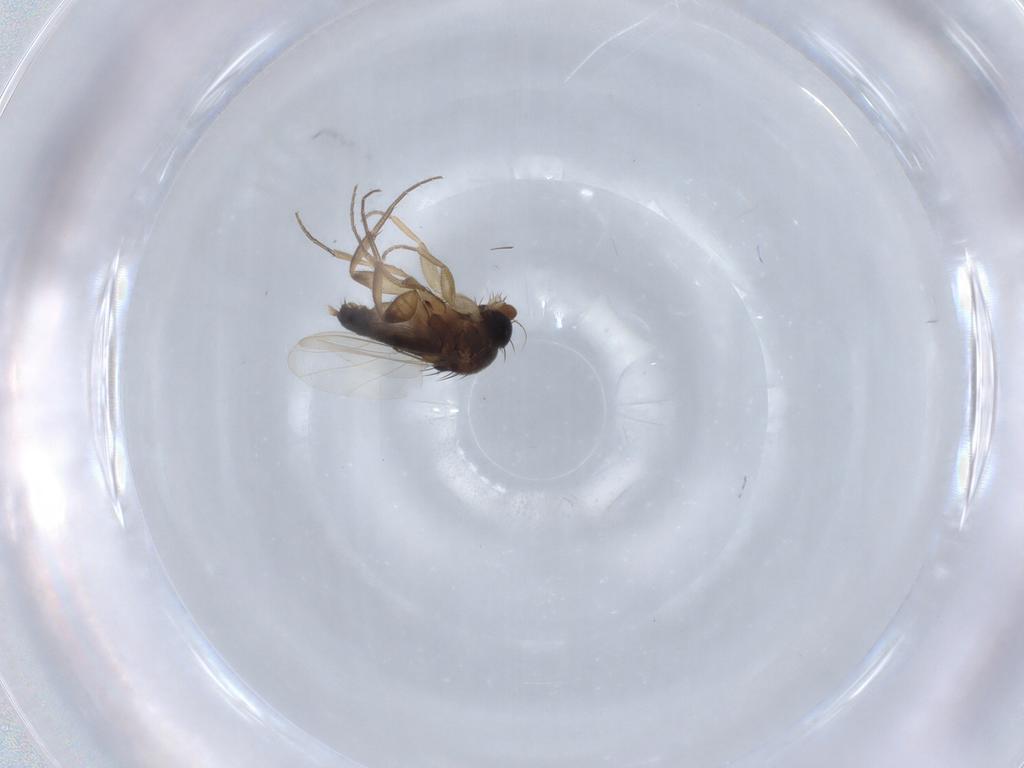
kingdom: Animalia
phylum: Arthropoda
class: Insecta
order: Diptera
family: Phoridae
